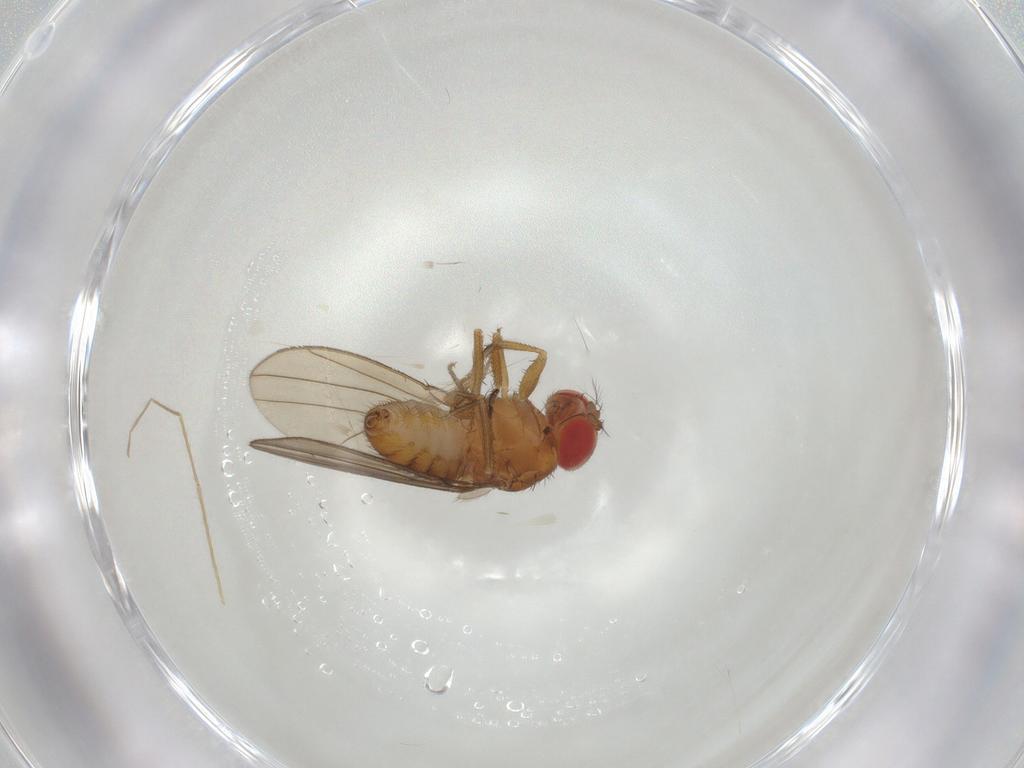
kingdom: Animalia
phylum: Arthropoda
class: Insecta
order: Diptera
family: Drosophilidae
